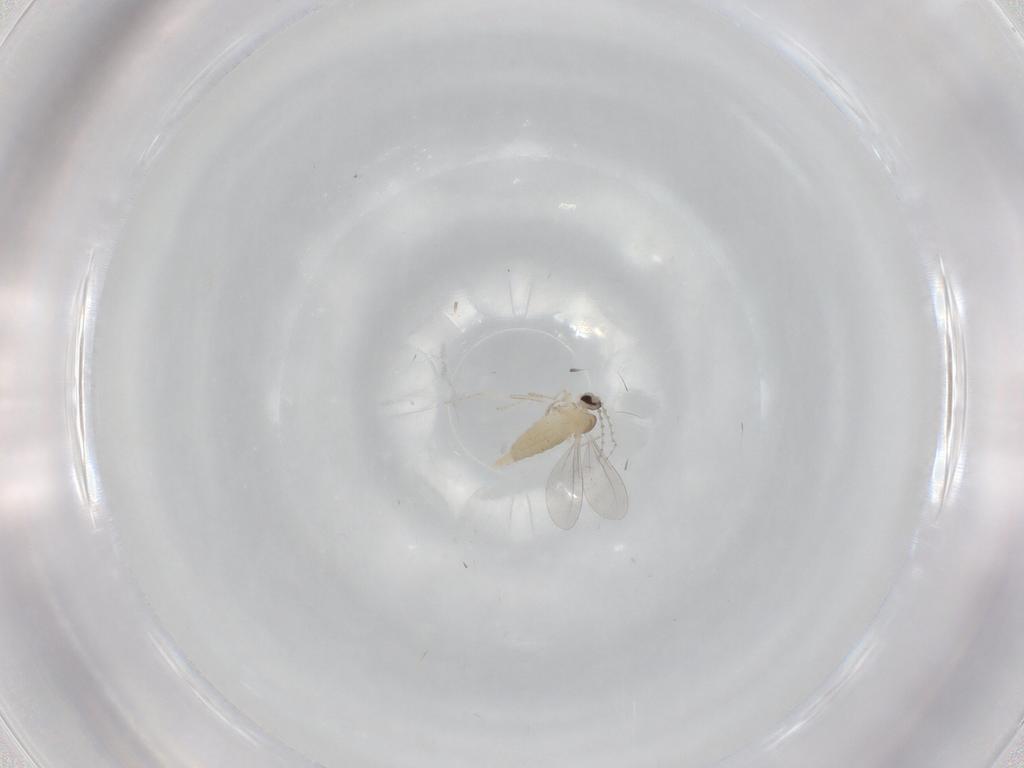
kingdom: Animalia
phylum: Arthropoda
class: Insecta
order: Diptera
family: Cecidomyiidae
